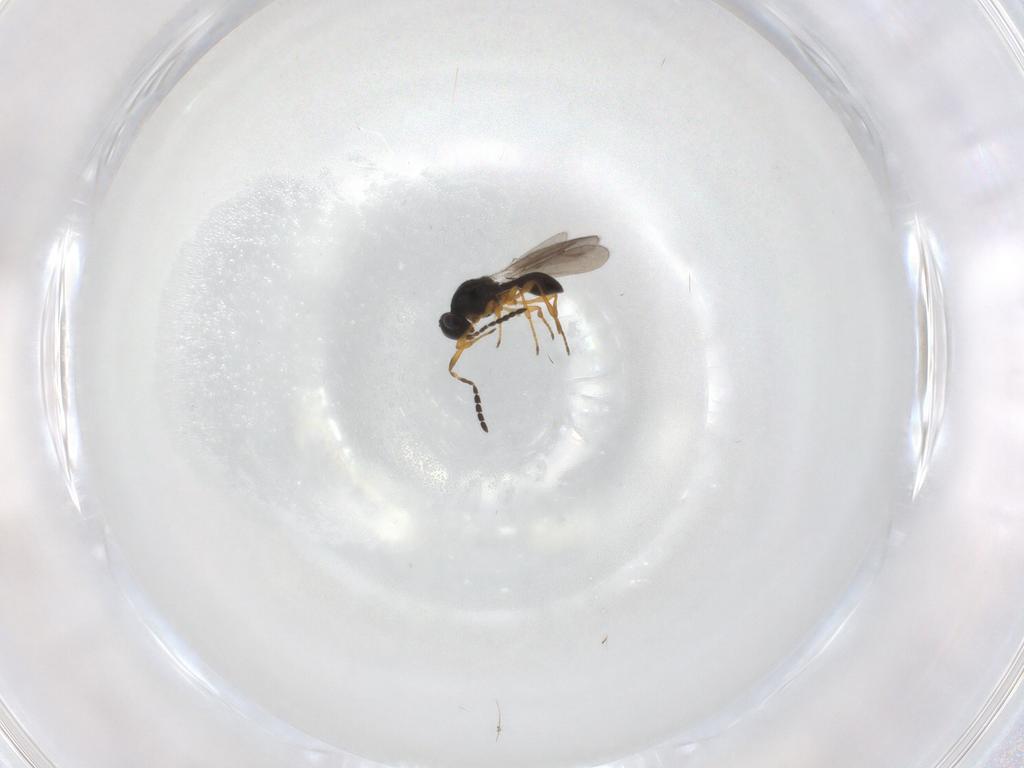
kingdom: Animalia
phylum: Arthropoda
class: Insecta
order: Hymenoptera
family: Platygastridae
